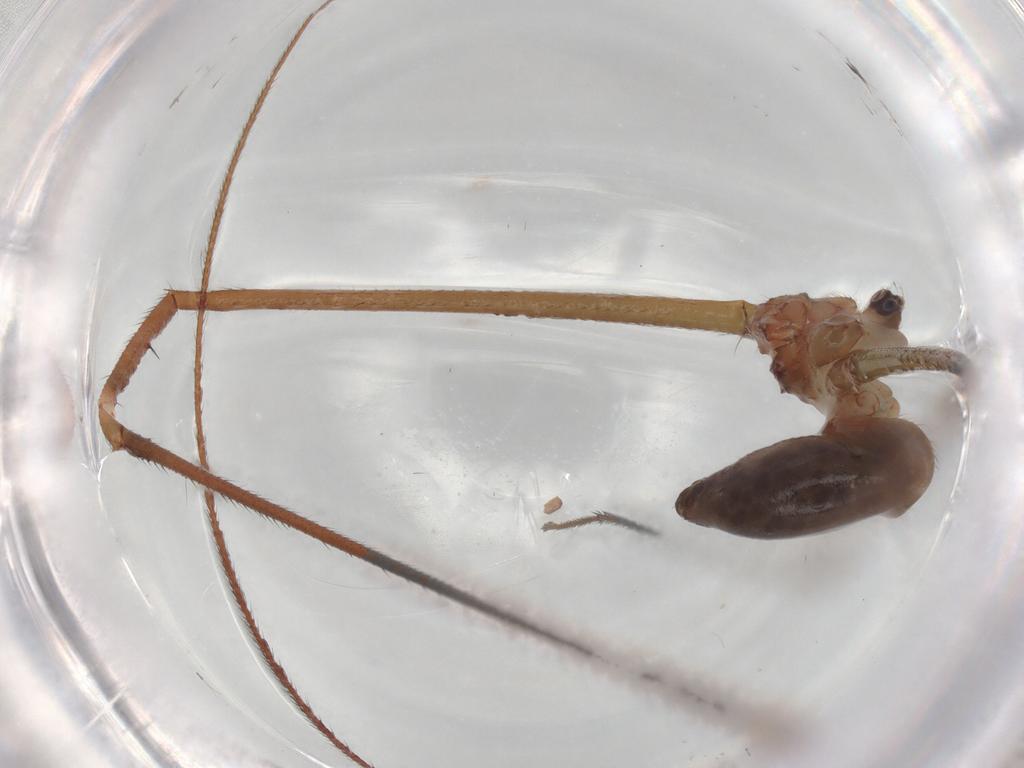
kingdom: Animalia
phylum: Arthropoda
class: Arachnida
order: Araneae
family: Pholcidae
